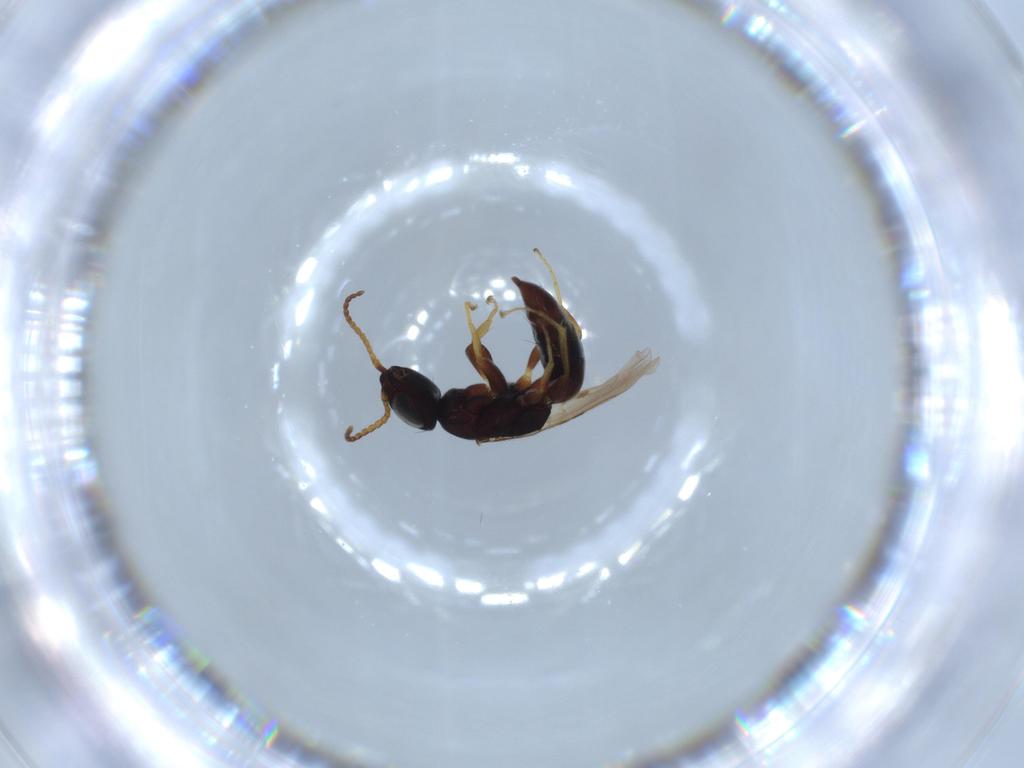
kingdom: Animalia
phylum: Arthropoda
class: Insecta
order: Hymenoptera
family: Bethylidae
